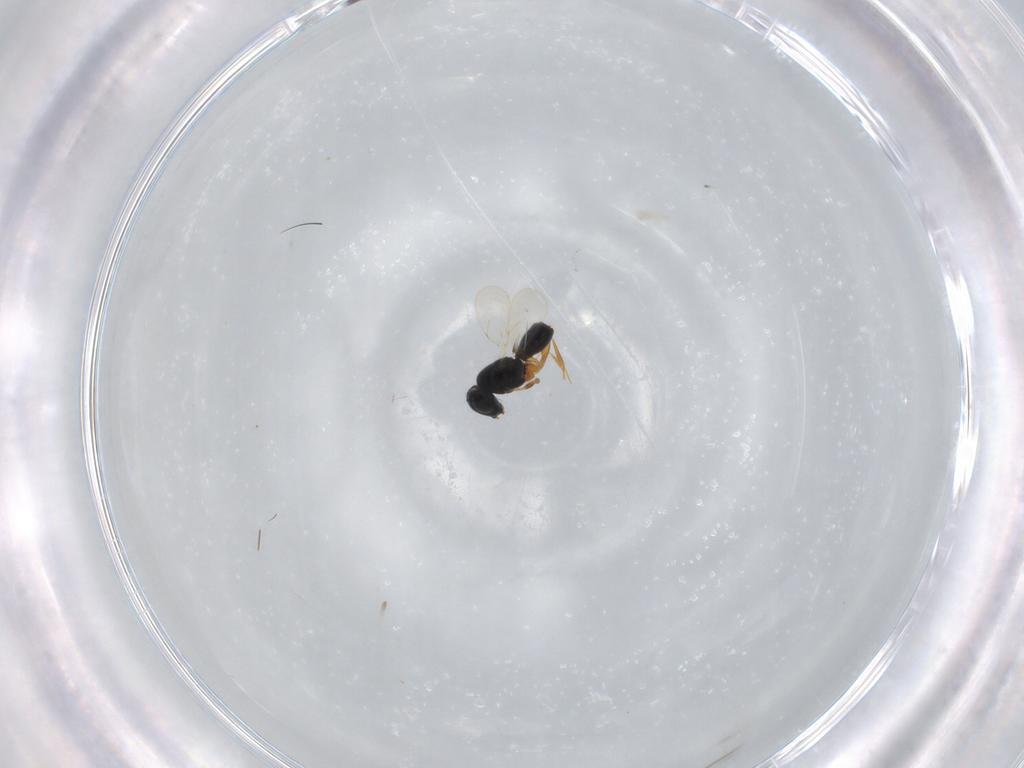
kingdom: Animalia
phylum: Arthropoda
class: Insecta
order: Hymenoptera
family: Scelionidae
